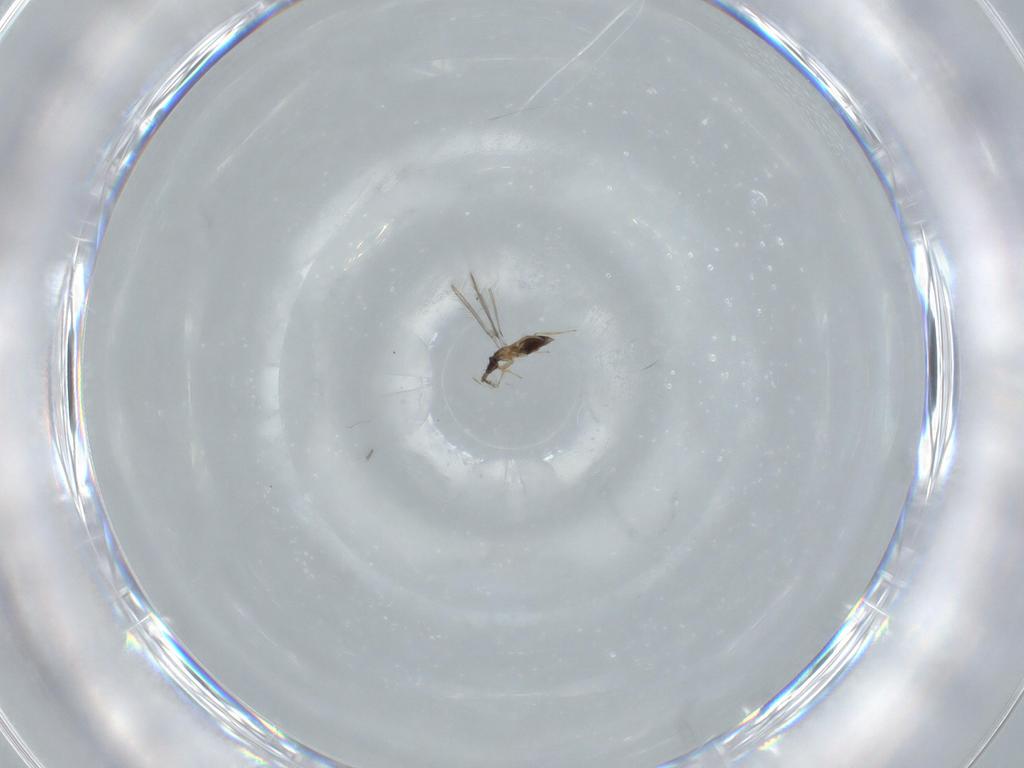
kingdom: Animalia
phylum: Arthropoda
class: Insecta
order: Hymenoptera
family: Mymaridae
